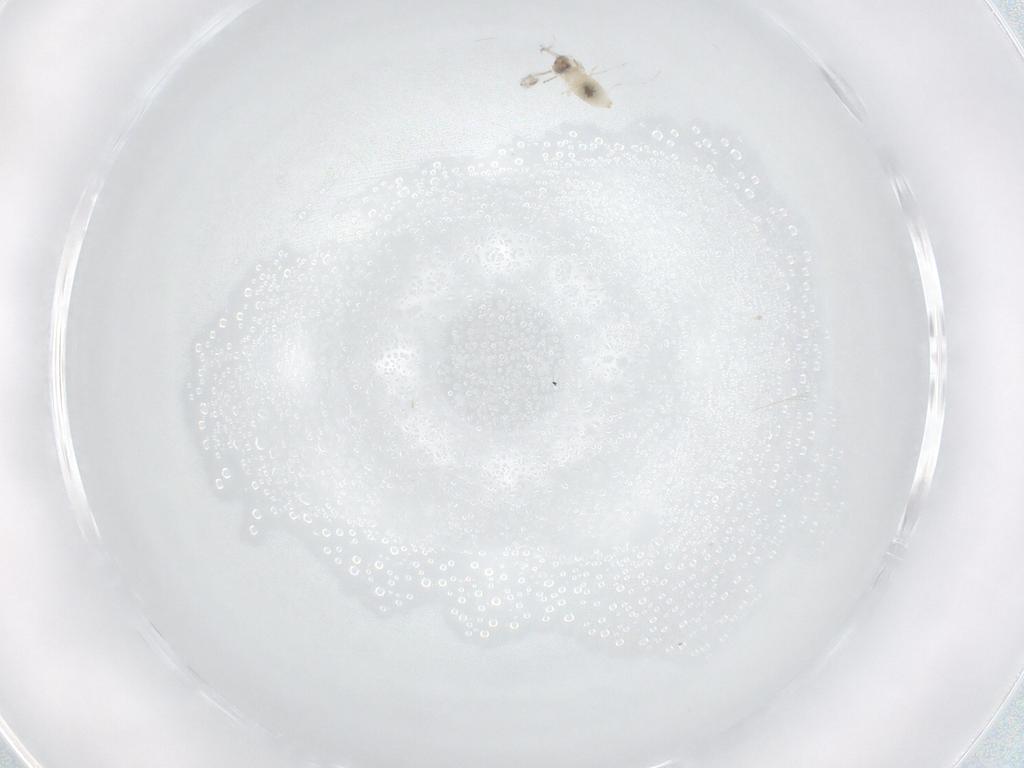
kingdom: Animalia
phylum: Arthropoda
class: Insecta
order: Diptera
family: Cecidomyiidae
